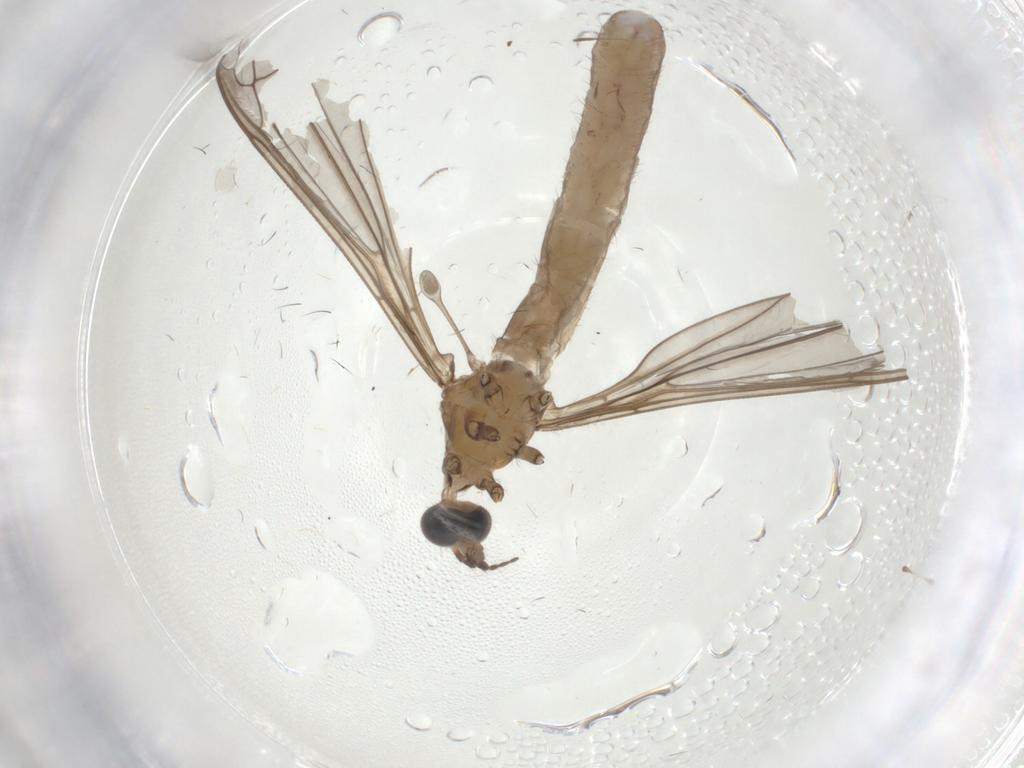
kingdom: Animalia
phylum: Arthropoda
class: Insecta
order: Diptera
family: Limoniidae
